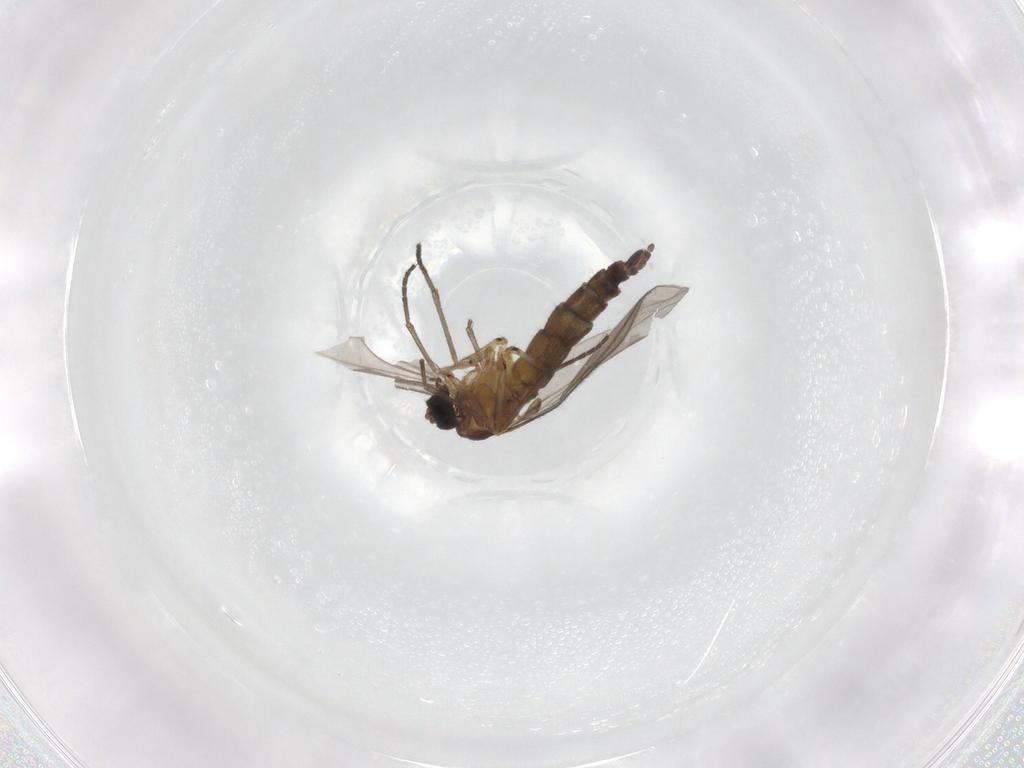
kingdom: Animalia
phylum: Arthropoda
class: Insecta
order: Diptera
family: Sciaridae
